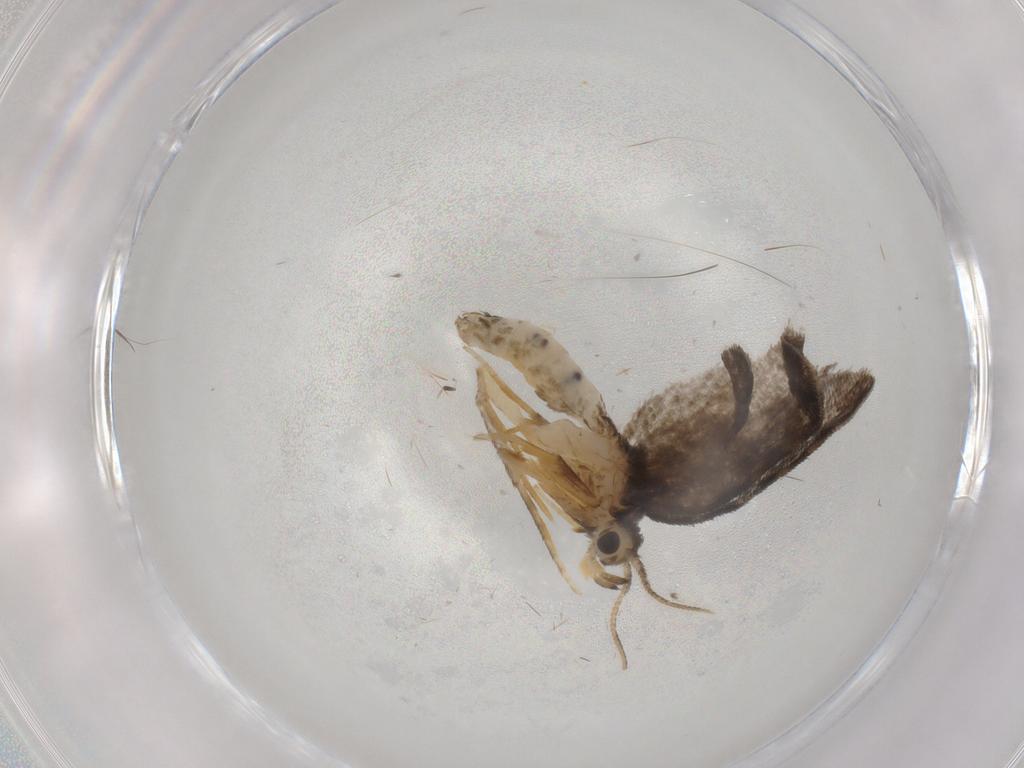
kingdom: Animalia
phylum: Arthropoda
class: Insecta
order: Lepidoptera
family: Psychidae
